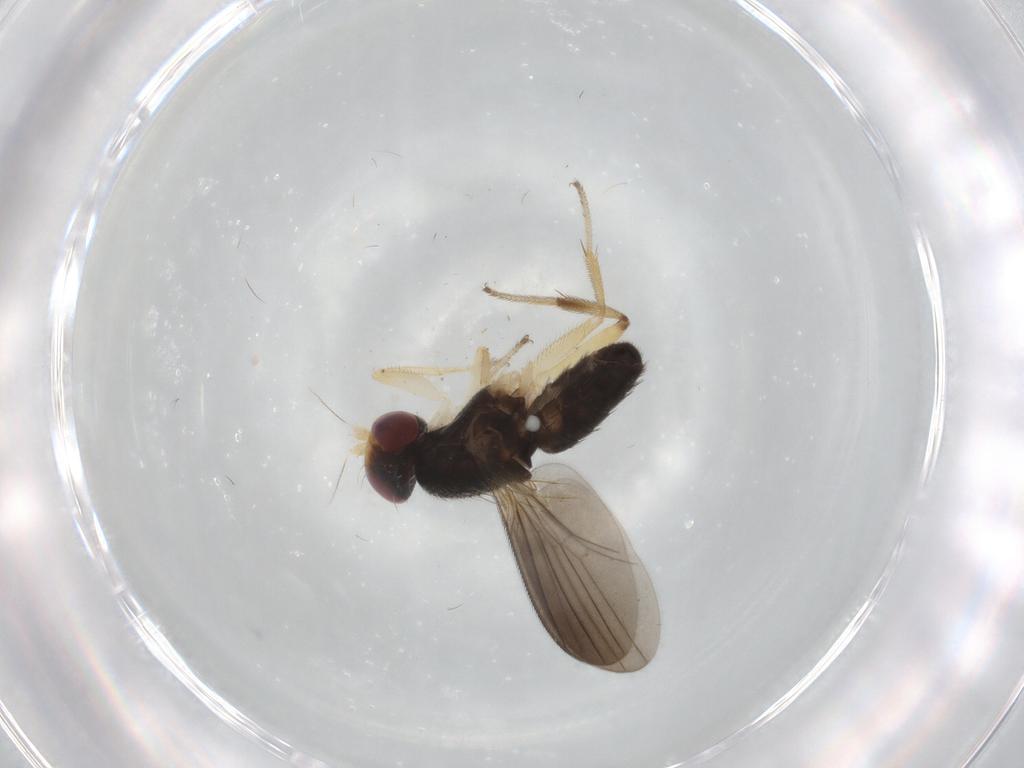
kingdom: Animalia
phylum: Arthropoda
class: Insecta
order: Diptera
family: Clusiidae
